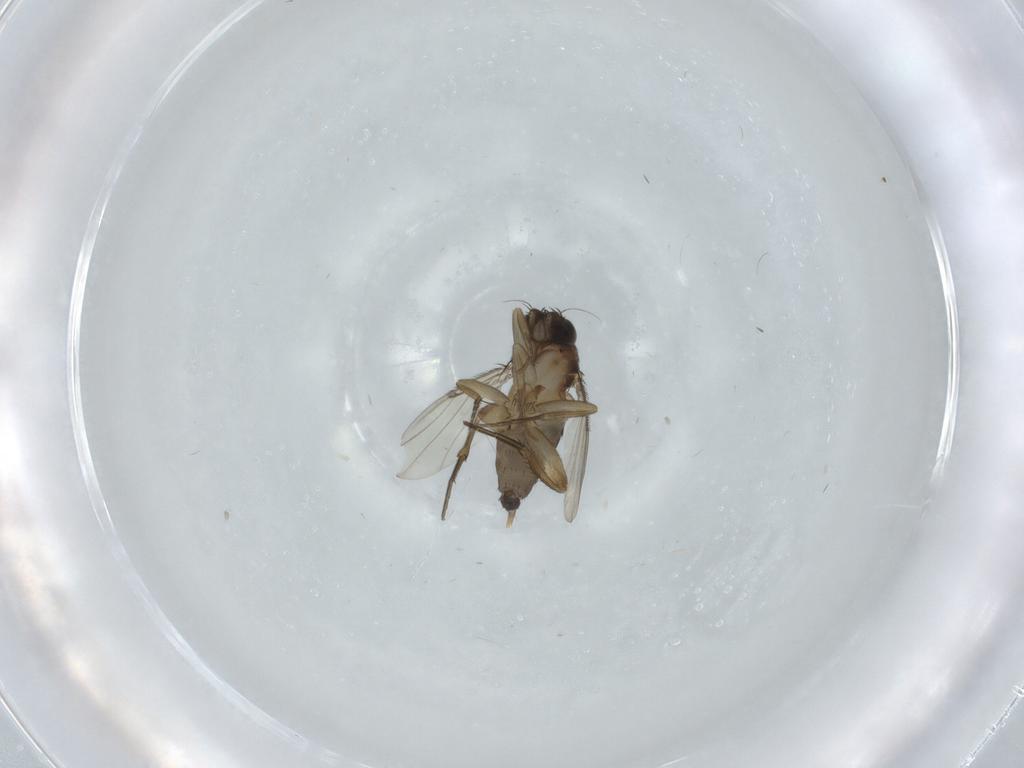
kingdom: Animalia
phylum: Arthropoda
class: Insecta
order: Diptera
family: Phoridae
